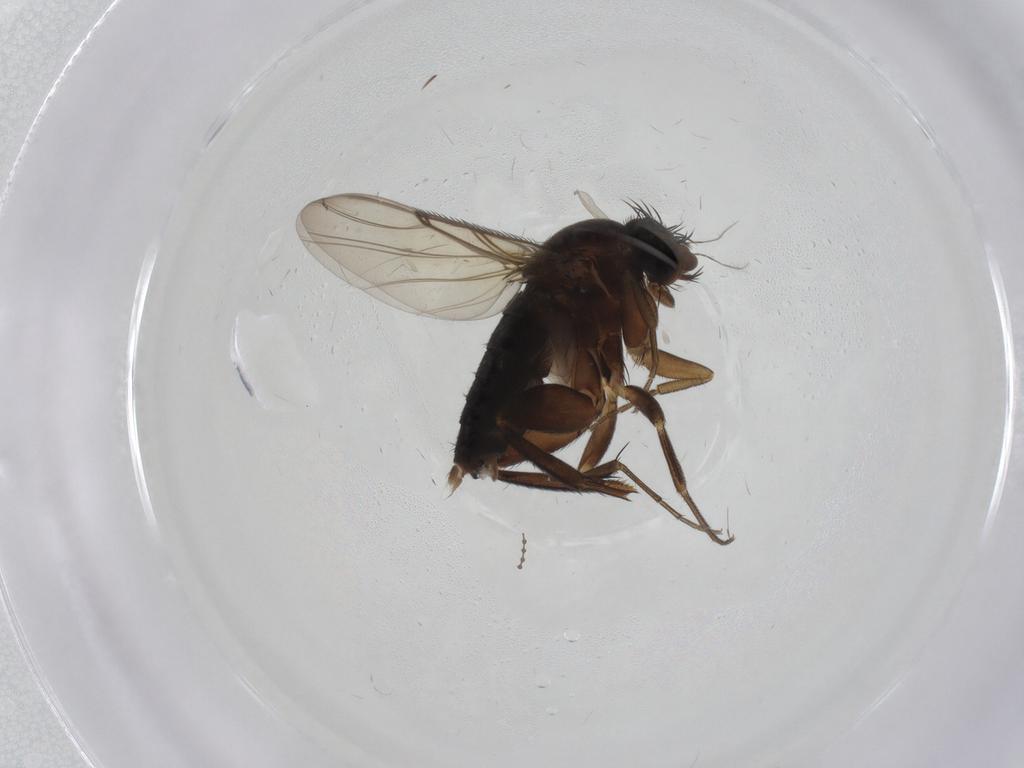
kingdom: Animalia
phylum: Arthropoda
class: Insecta
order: Diptera
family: Phoridae
